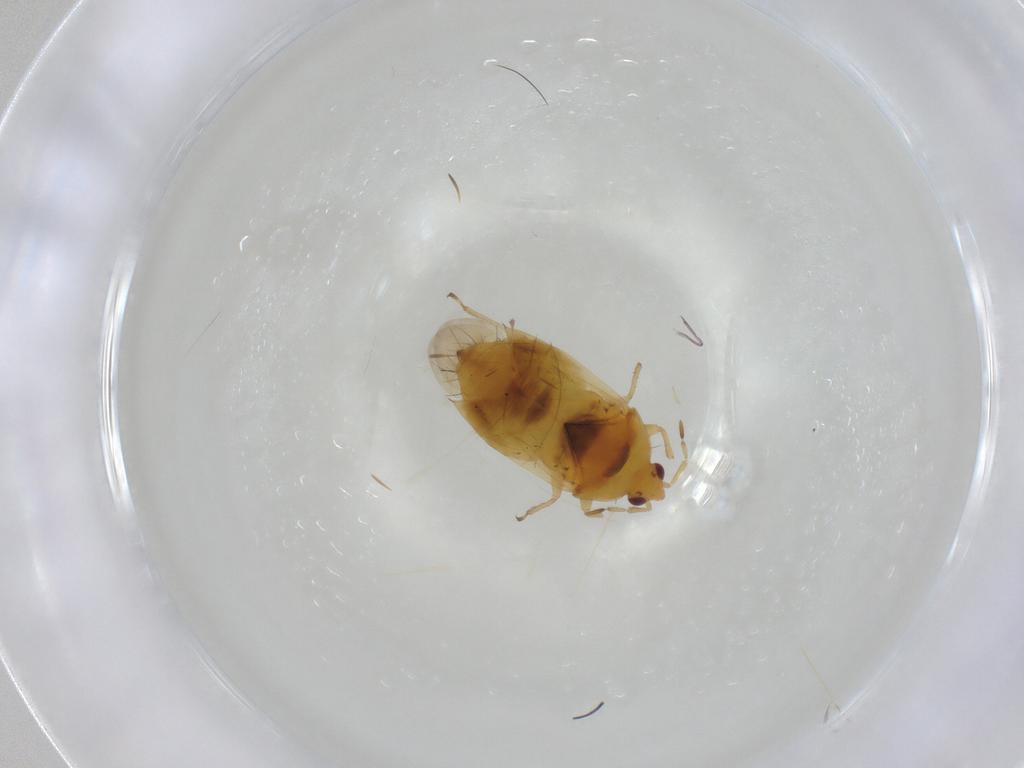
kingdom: Animalia
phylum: Arthropoda
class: Insecta
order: Hymenoptera
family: Braconidae
